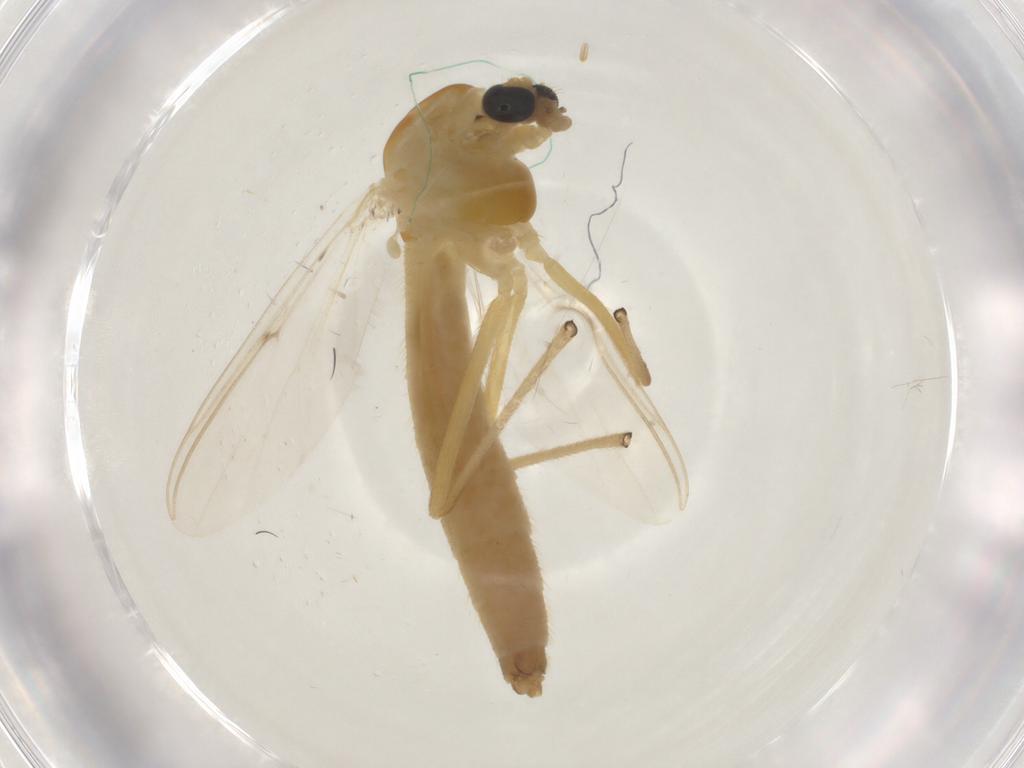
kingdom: Animalia
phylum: Arthropoda
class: Insecta
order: Diptera
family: Chironomidae
